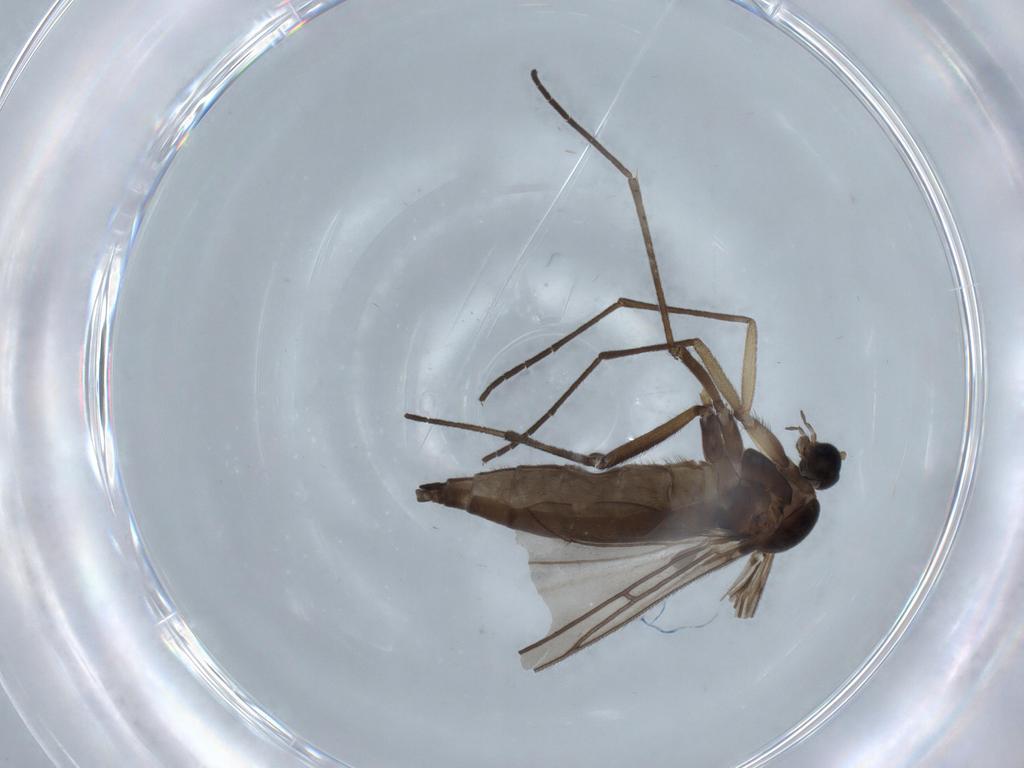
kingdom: Animalia
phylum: Arthropoda
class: Insecta
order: Diptera
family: Sciaridae
